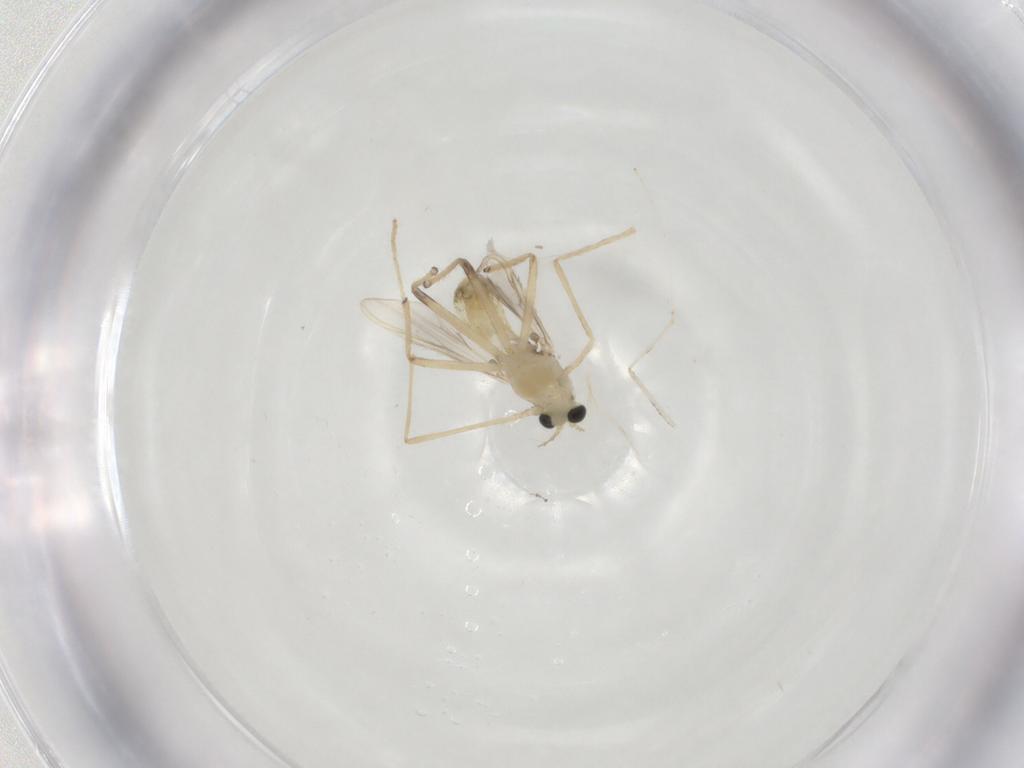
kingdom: Animalia
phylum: Arthropoda
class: Insecta
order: Diptera
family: Chironomidae
